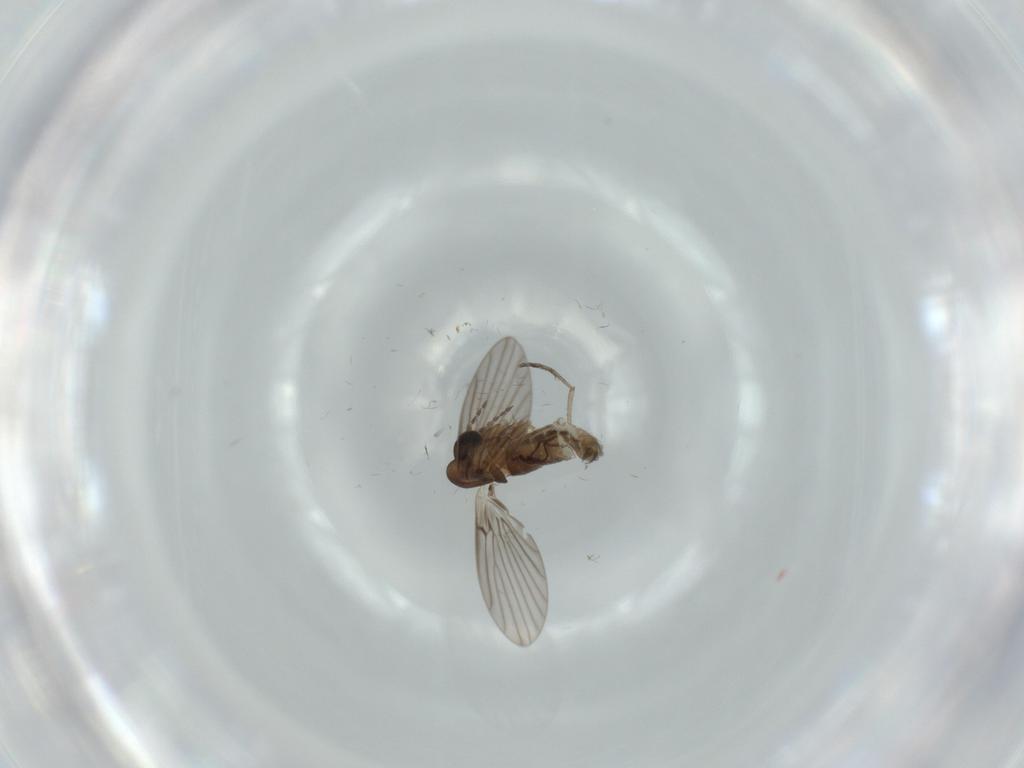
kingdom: Animalia
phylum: Arthropoda
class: Insecta
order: Diptera
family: Psychodidae
